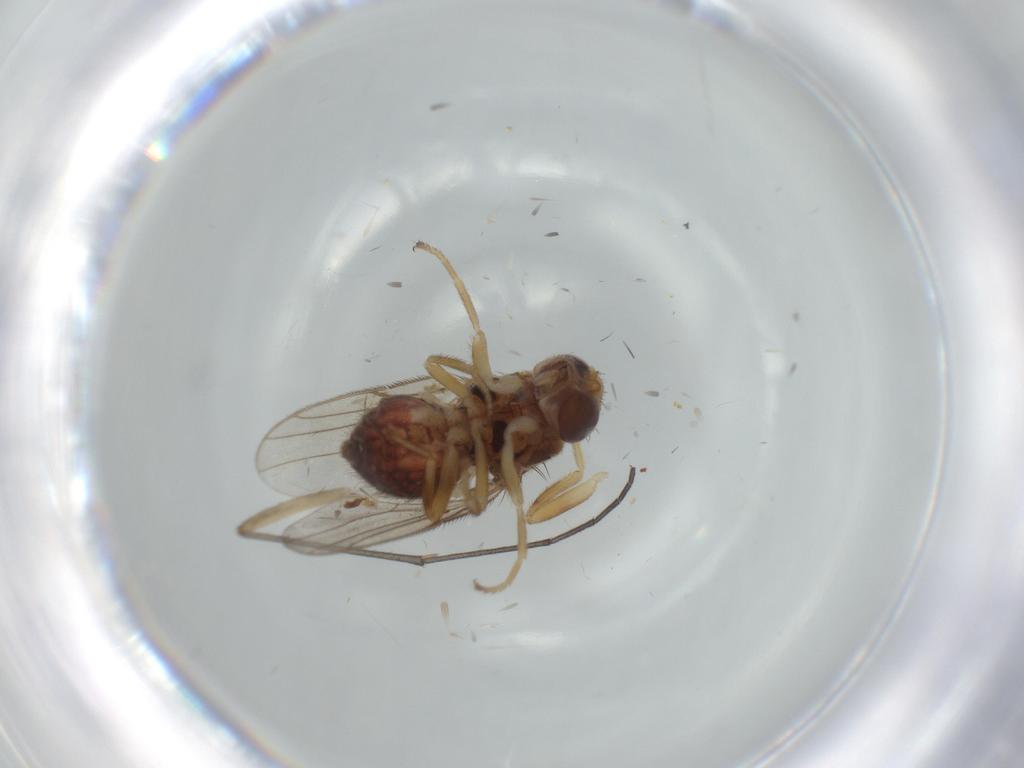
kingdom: Animalia
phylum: Arthropoda
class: Insecta
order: Diptera
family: Chloropidae
